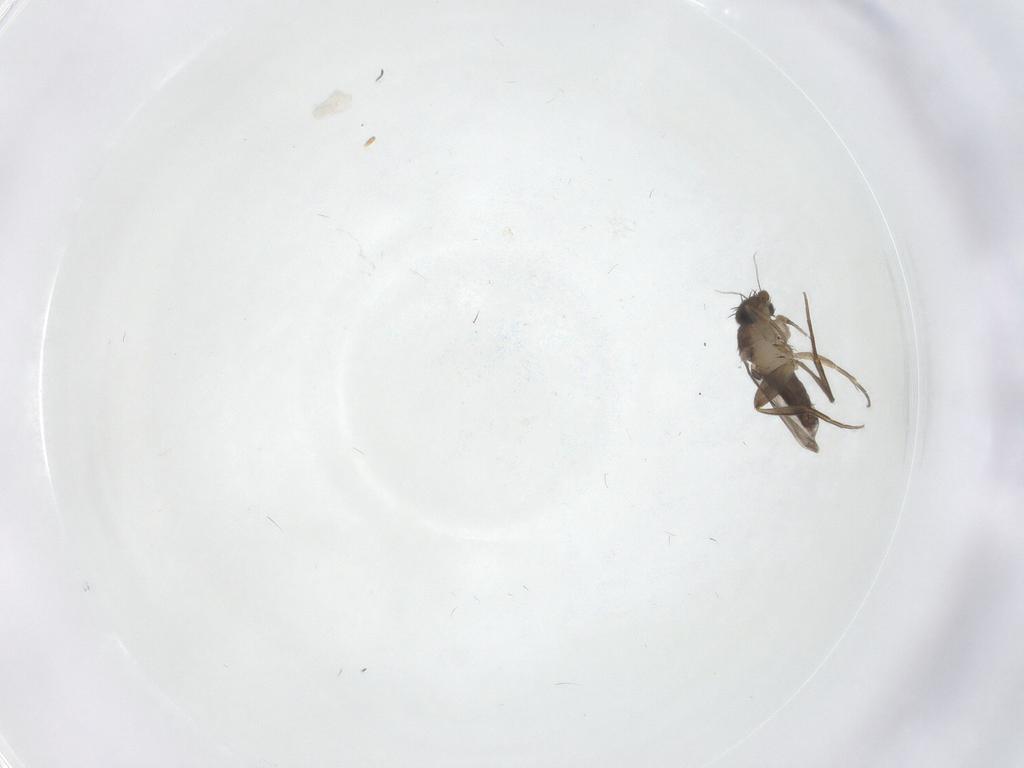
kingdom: Animalia
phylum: Arthropoda
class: Insecta
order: Diptera
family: Phoridae
